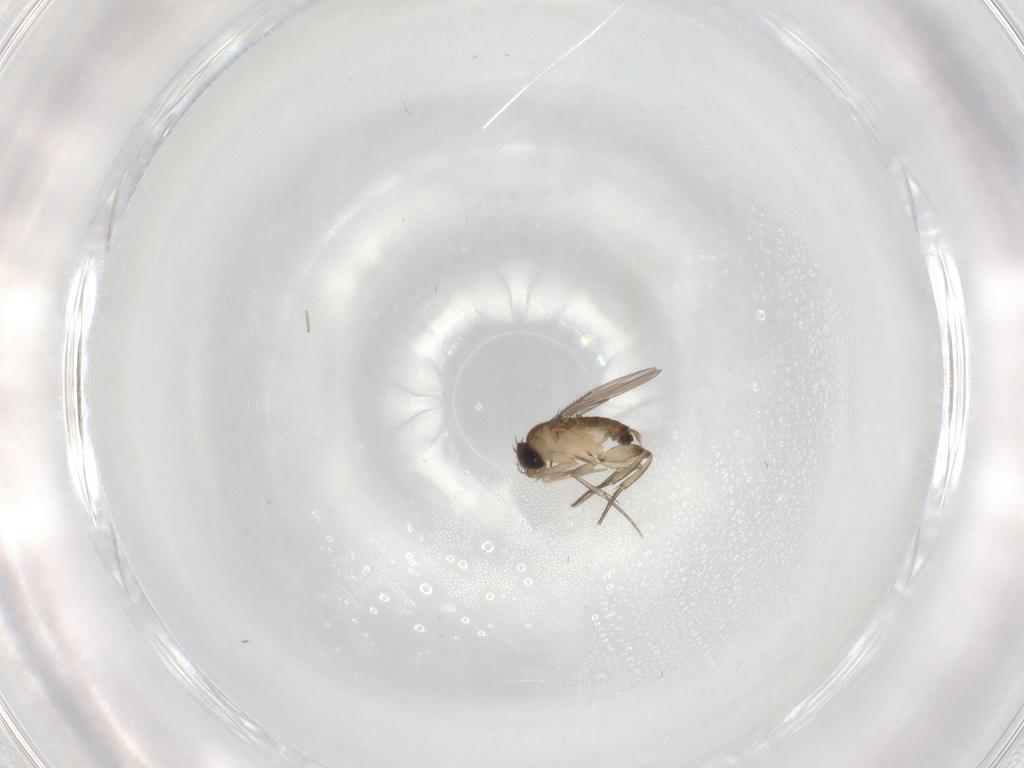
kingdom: Animalia
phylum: Arthropoda
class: Insecta
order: Diptera
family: Phoridae
